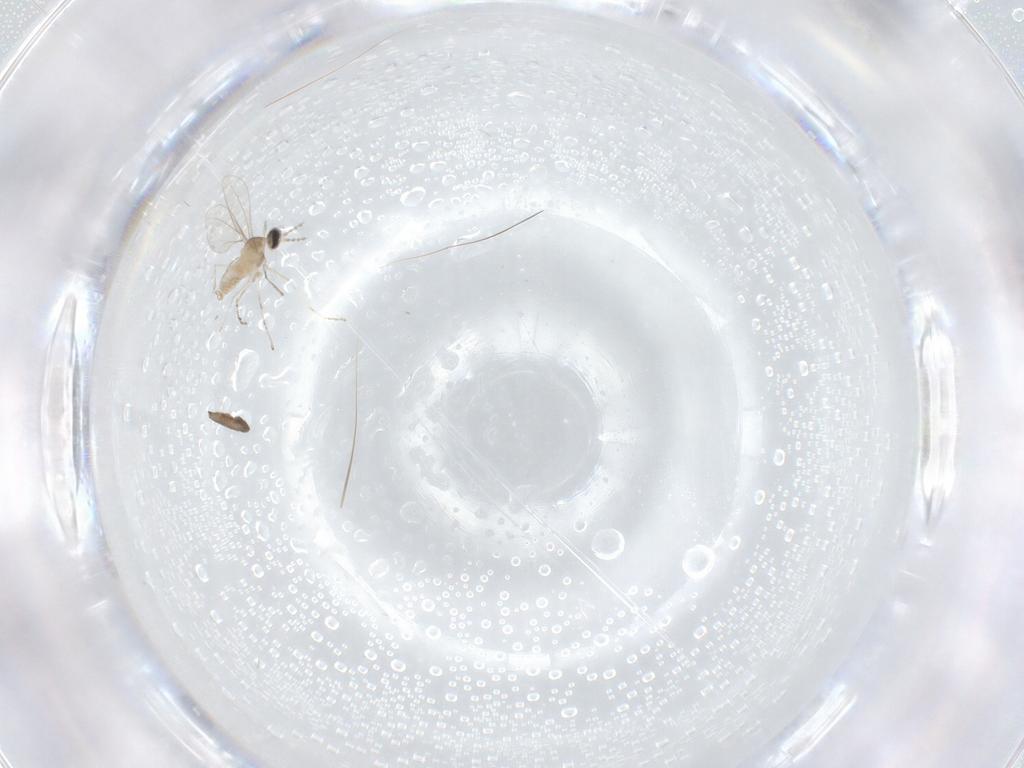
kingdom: Animalia
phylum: Arthropoda
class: Insecta
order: Diptera
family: Cecidomyiidae
